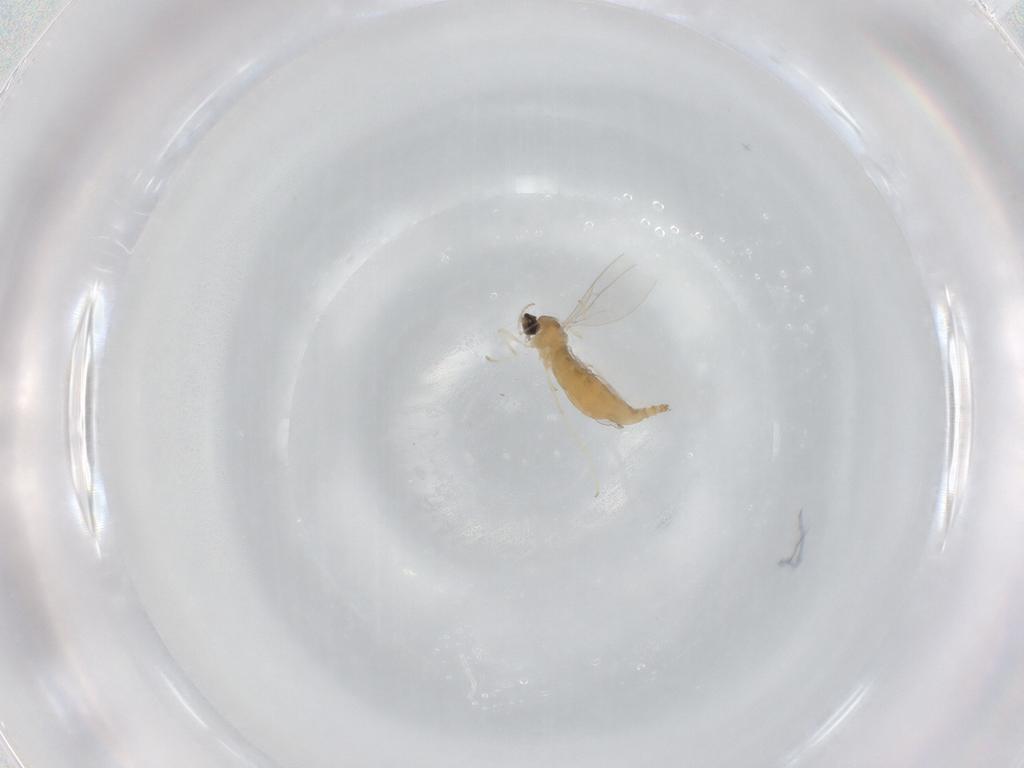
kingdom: Animalia
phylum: Arthropoda
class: Insecta
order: Diptera
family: Cecidomyiidae
